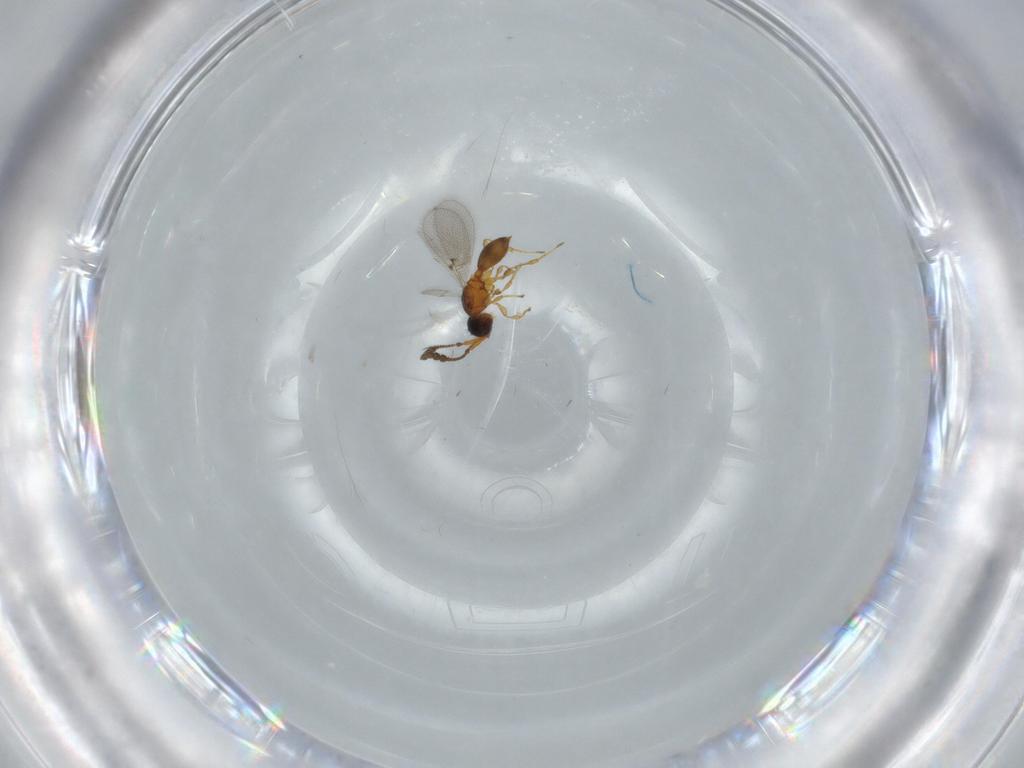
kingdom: Animalia
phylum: Arthropoda
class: Insecta
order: Hymenoptera
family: Diapriidae
